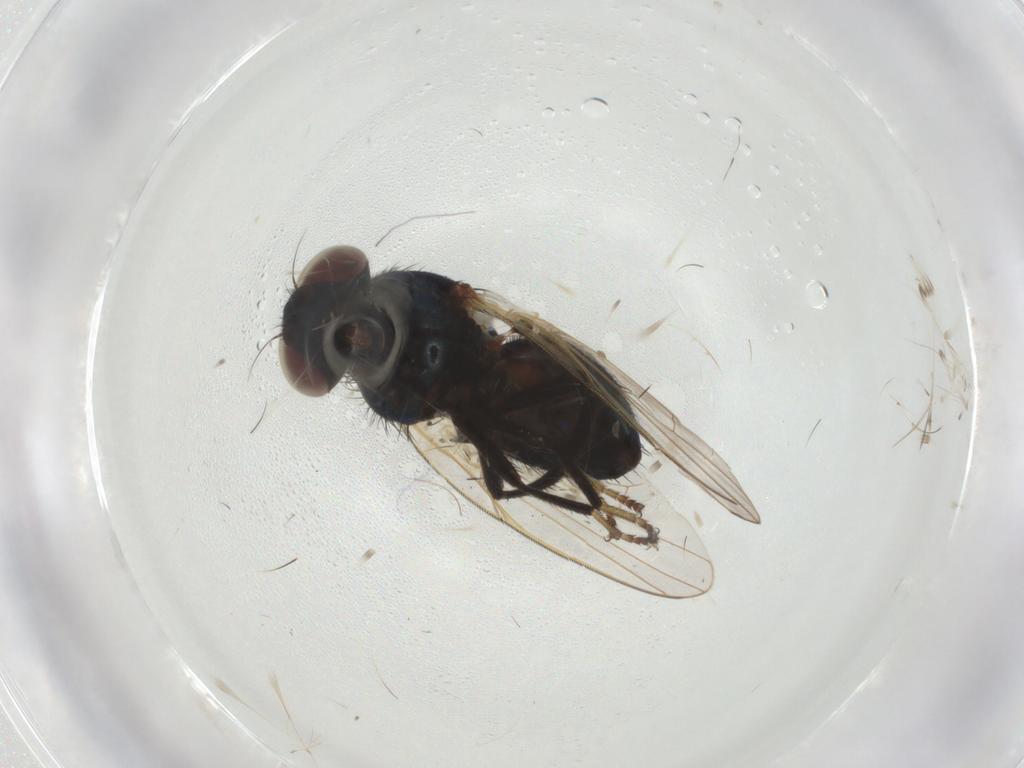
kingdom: Animalia
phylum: Arthropoda
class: Insecta
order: Diptera
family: Lonchaeidae
